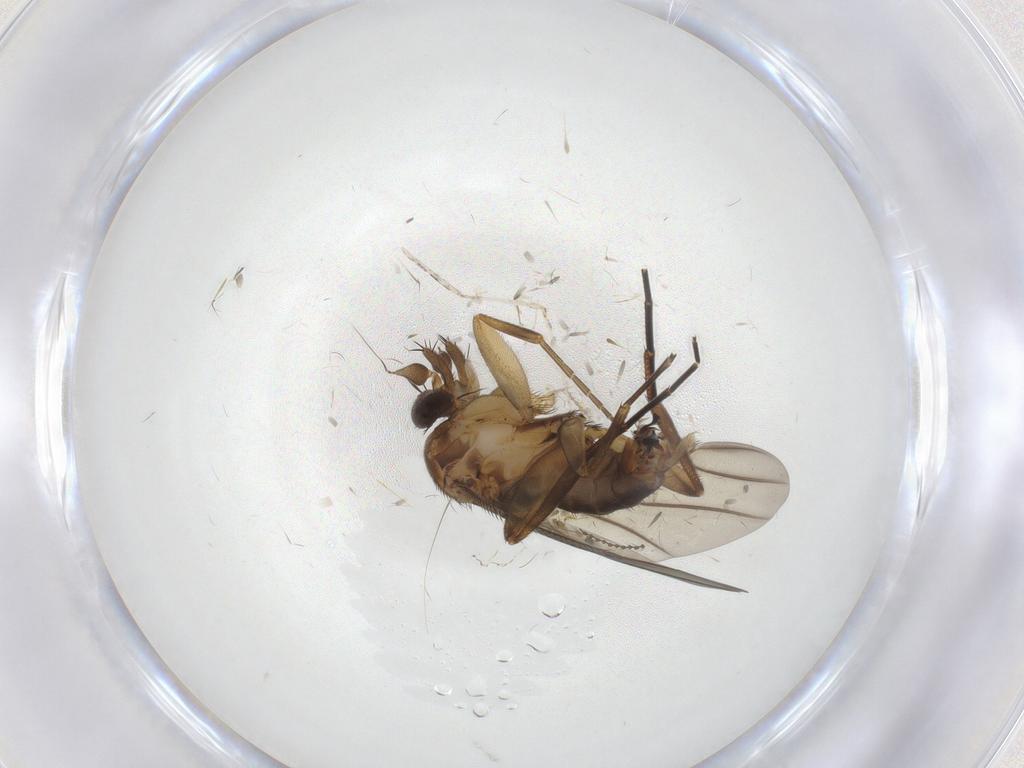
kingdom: Animalia
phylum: Arthropoda
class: Insecta
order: Diptera
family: Phoridae
